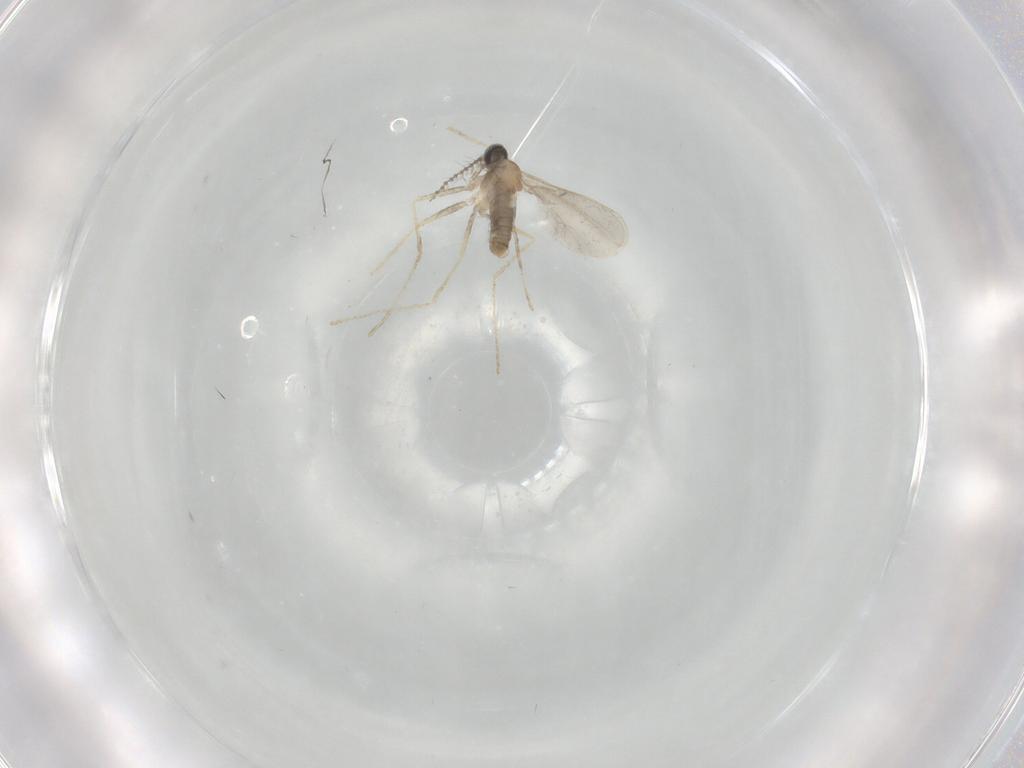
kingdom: Animalia
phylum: Arthropoda
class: Insecta
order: Diptera
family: Cecidomyiidae
